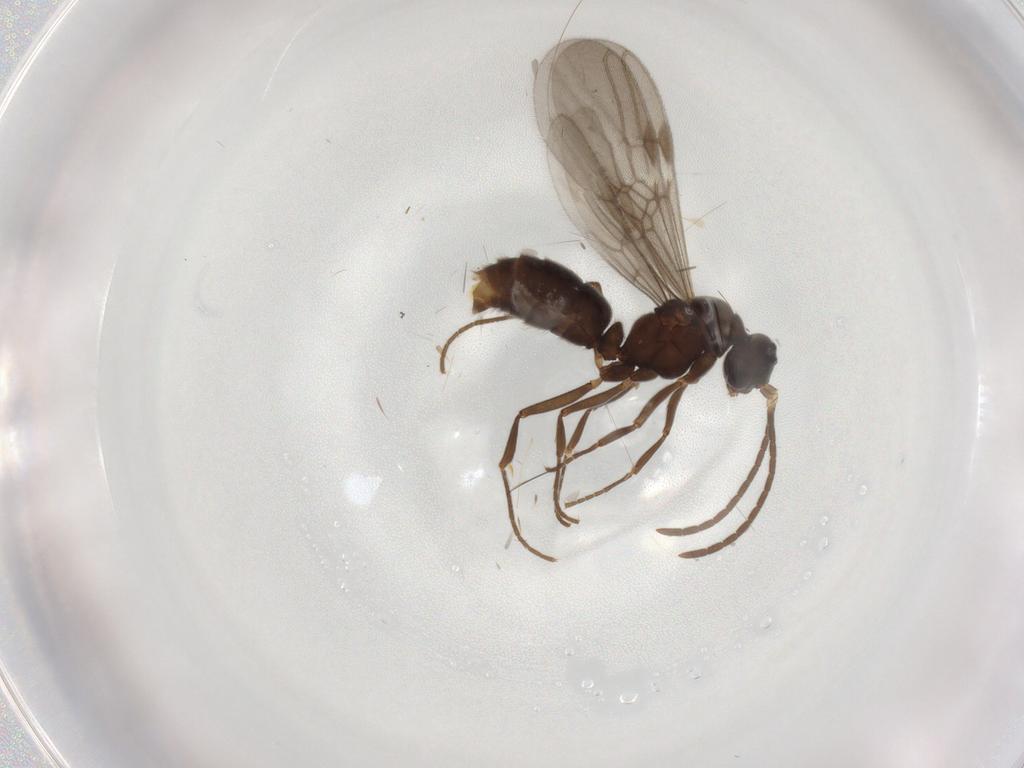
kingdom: Animalia
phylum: Arthropoda
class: Insecta
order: Hymenoptera
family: Formicidae
